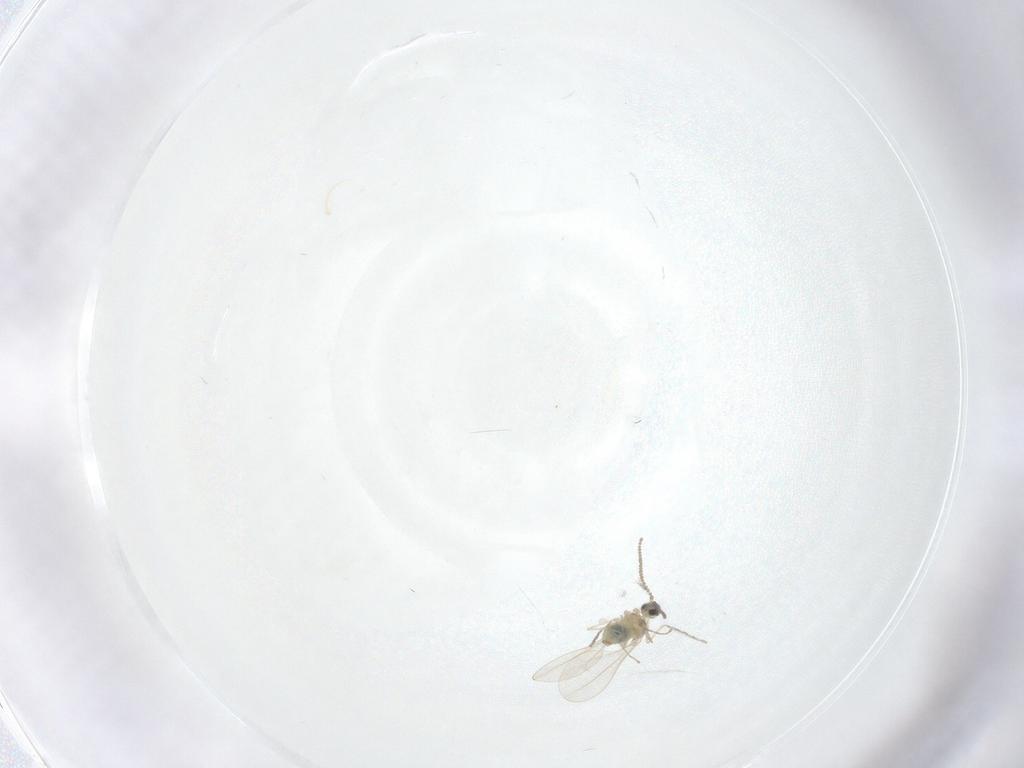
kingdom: Animalia
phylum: Arthropoda
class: Insecta
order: Diptera
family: Cecidomyiidae
